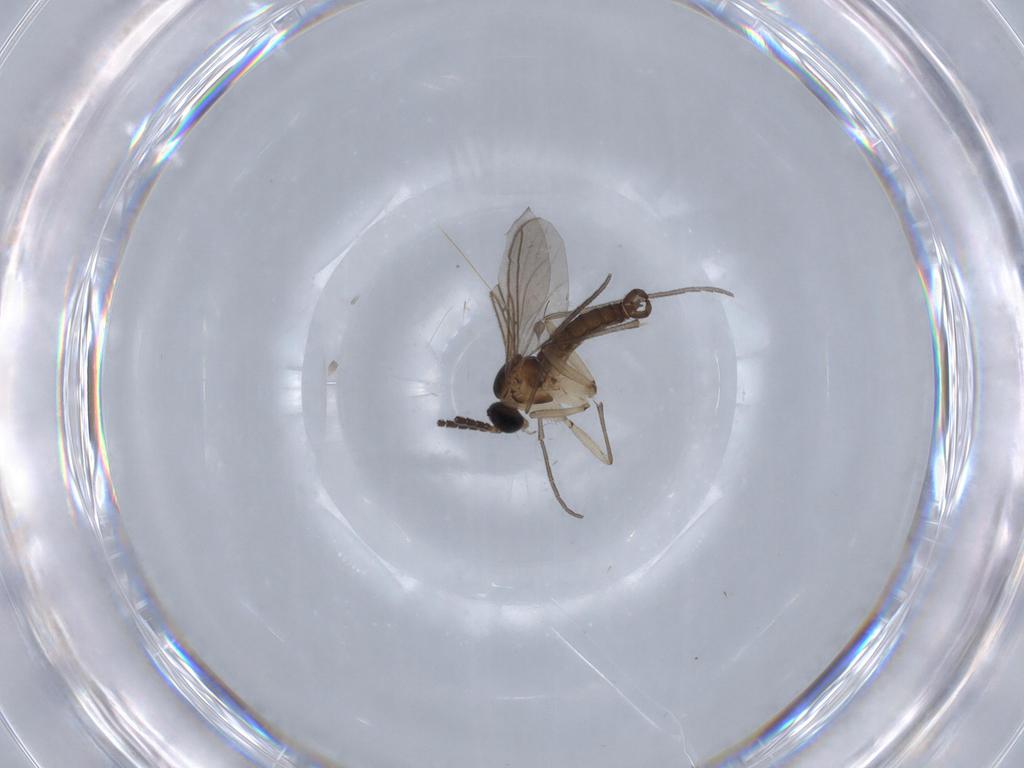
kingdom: Animalia
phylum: Arthropoda
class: Insecta
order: Diptera
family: Sciaridae
